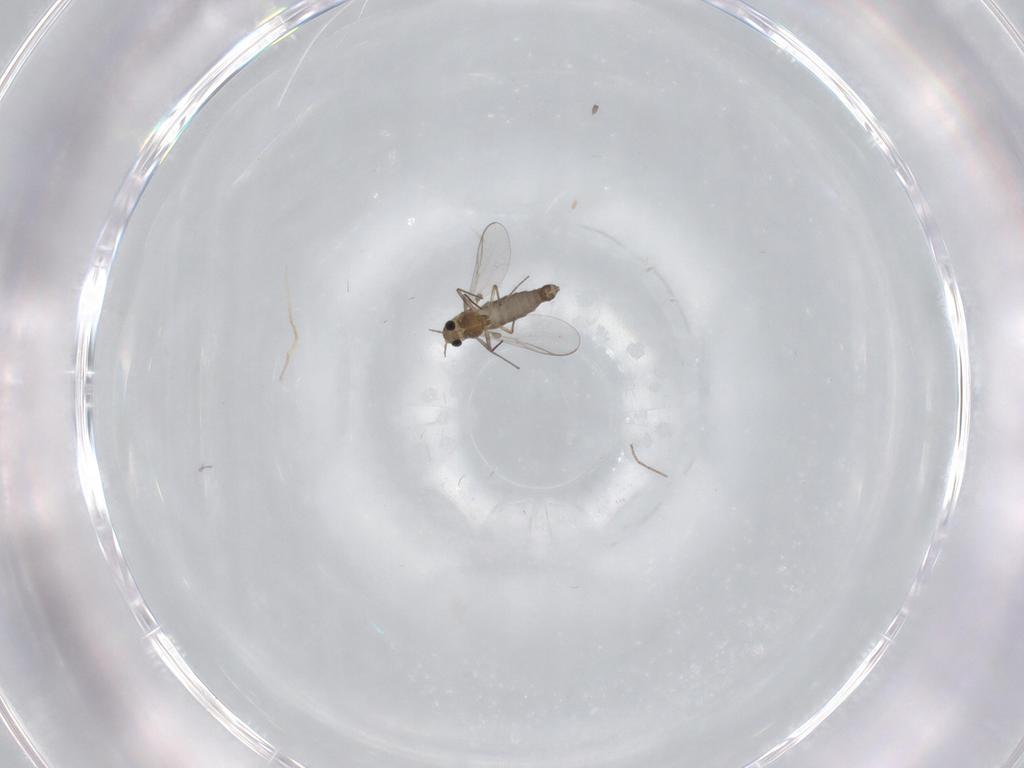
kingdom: Animalia
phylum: Arthropoda
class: Insecta
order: Diptera
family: Chironomidae
